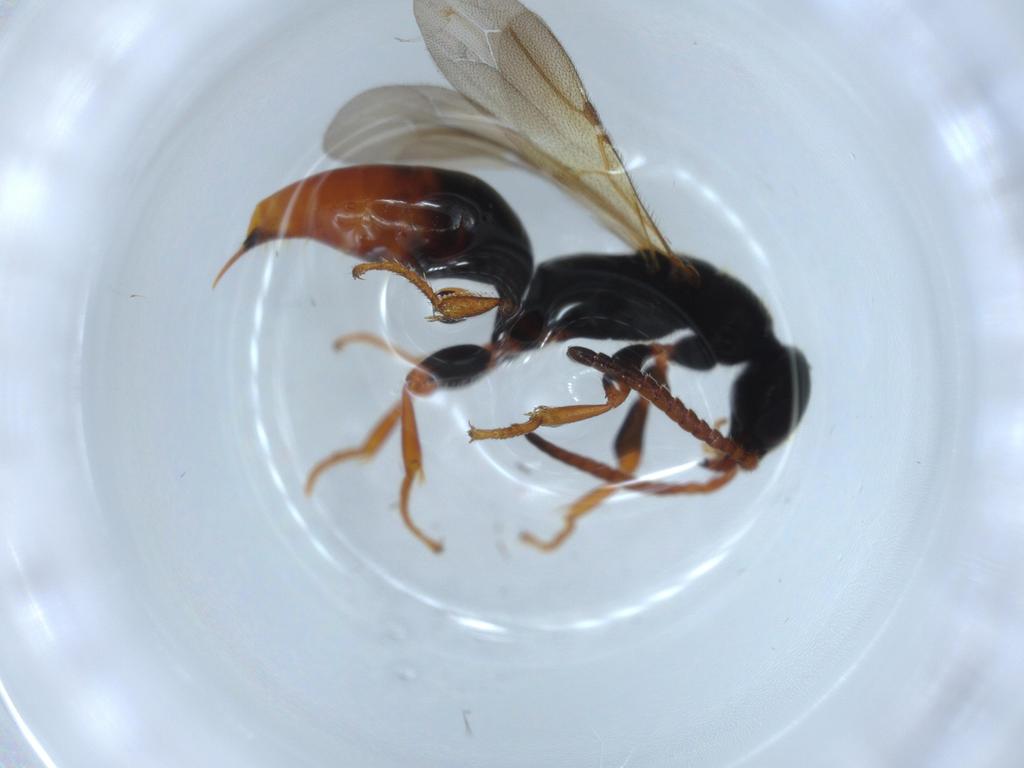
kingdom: Animalia
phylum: Arthropoda
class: Insecta
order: Hymenoptera
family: Bethylidae
